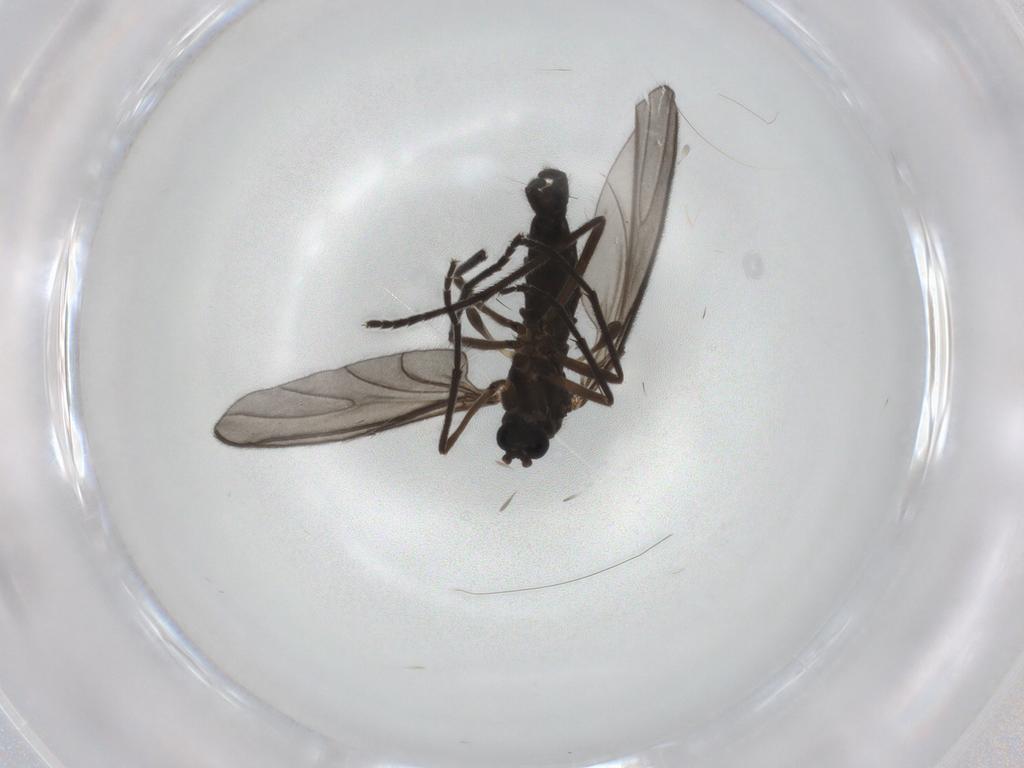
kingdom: Animalia
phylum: Arthropoda
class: Insecta
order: Diptera
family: Sciaridae
